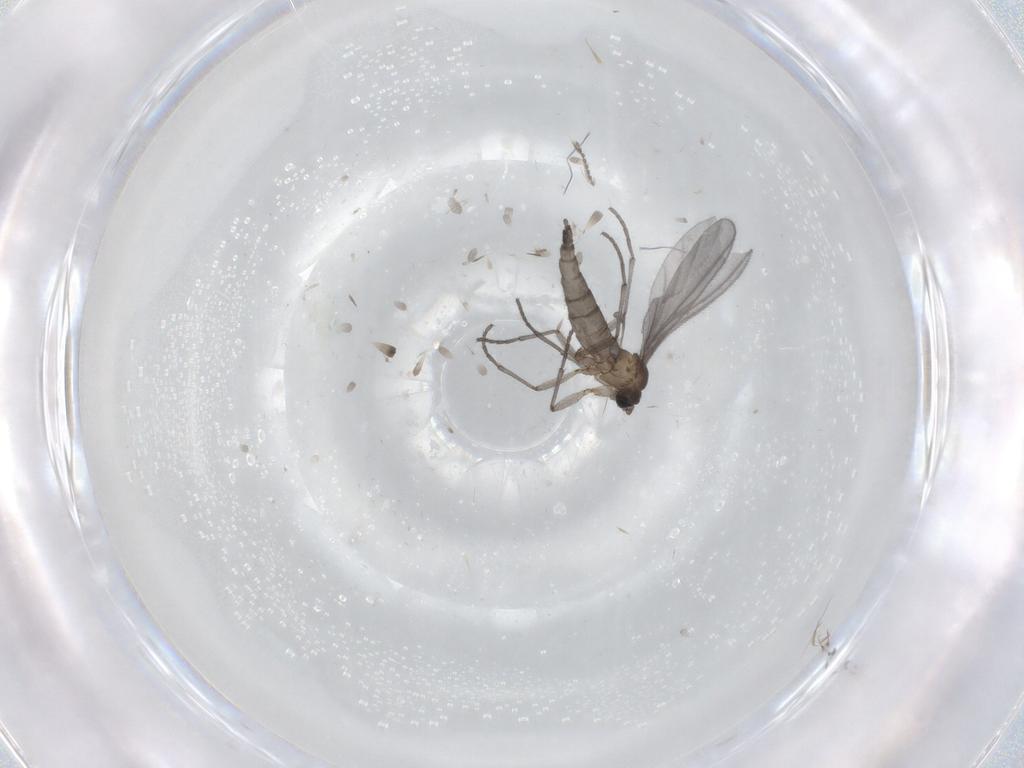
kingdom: Animalia
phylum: Arthropoda
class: Insecta
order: Diptera
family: Sciaridae
